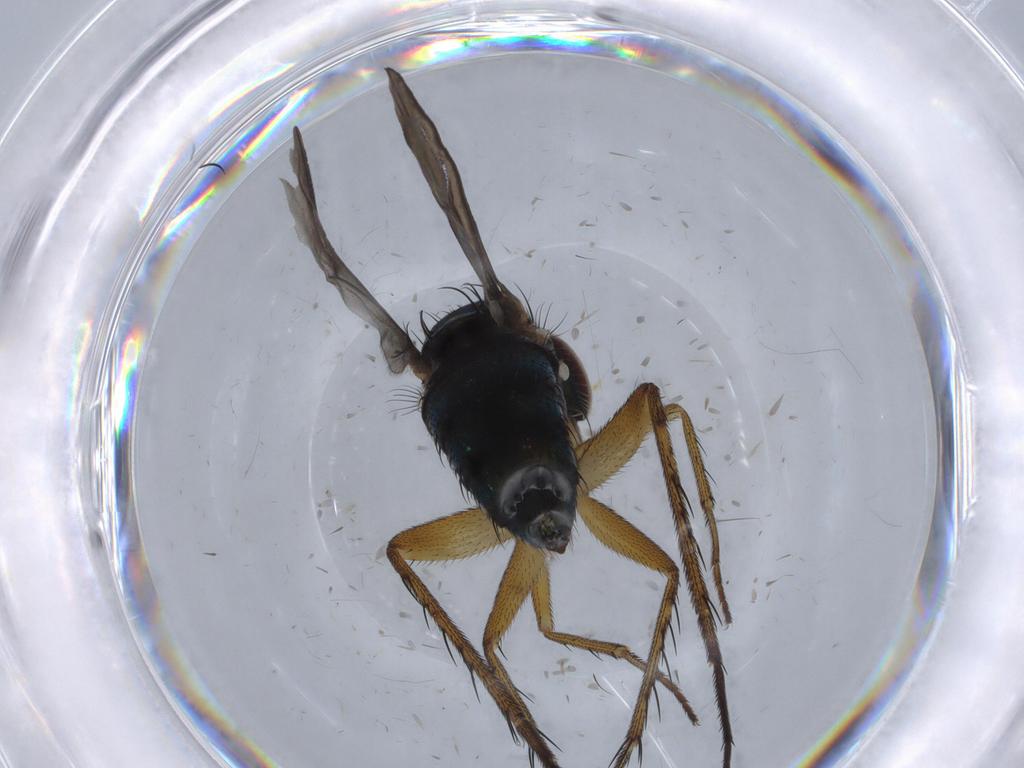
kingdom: Animalia
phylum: Arthropoda
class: Insecta
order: Diptera
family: Dolichopodidae
